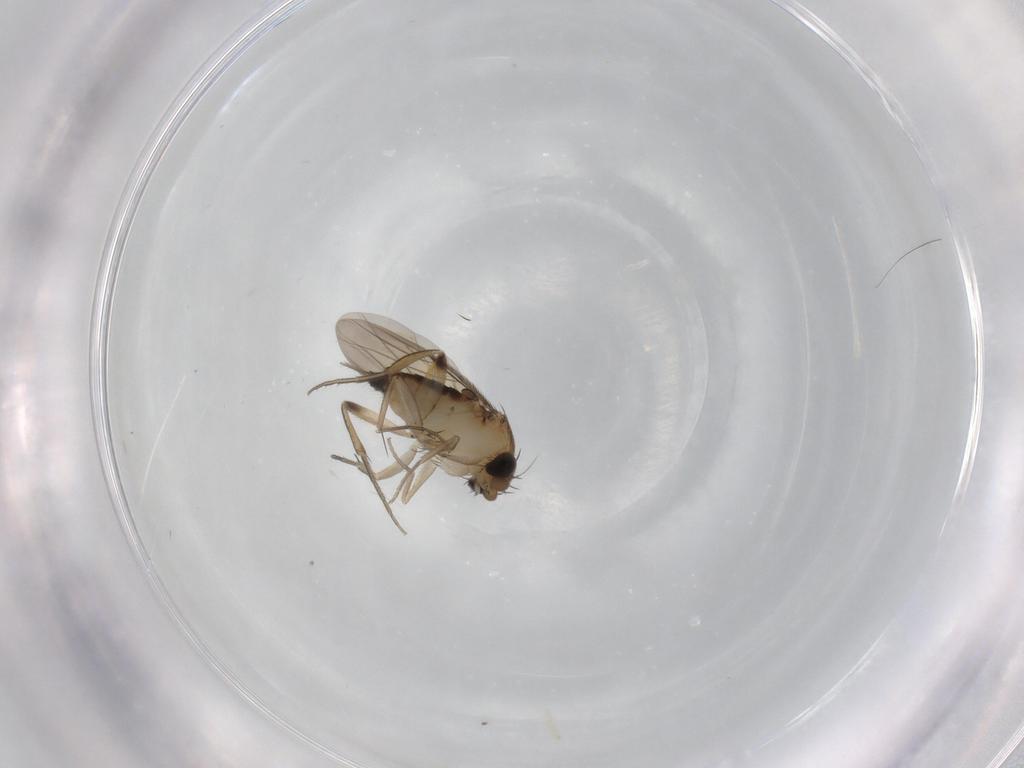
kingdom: Animalia
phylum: Arthropoda
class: Insecta
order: Diptera
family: Phoridae
